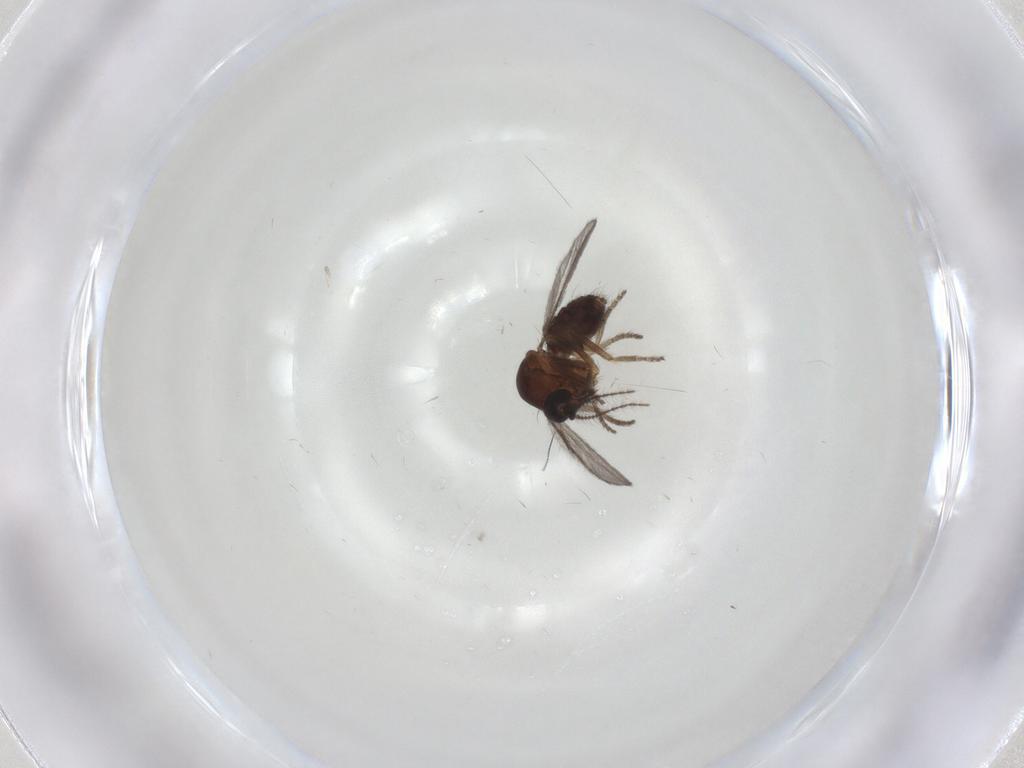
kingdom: Animalia
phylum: Arthropoda
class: Insecta
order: Diptera
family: Ceratopogonidae
